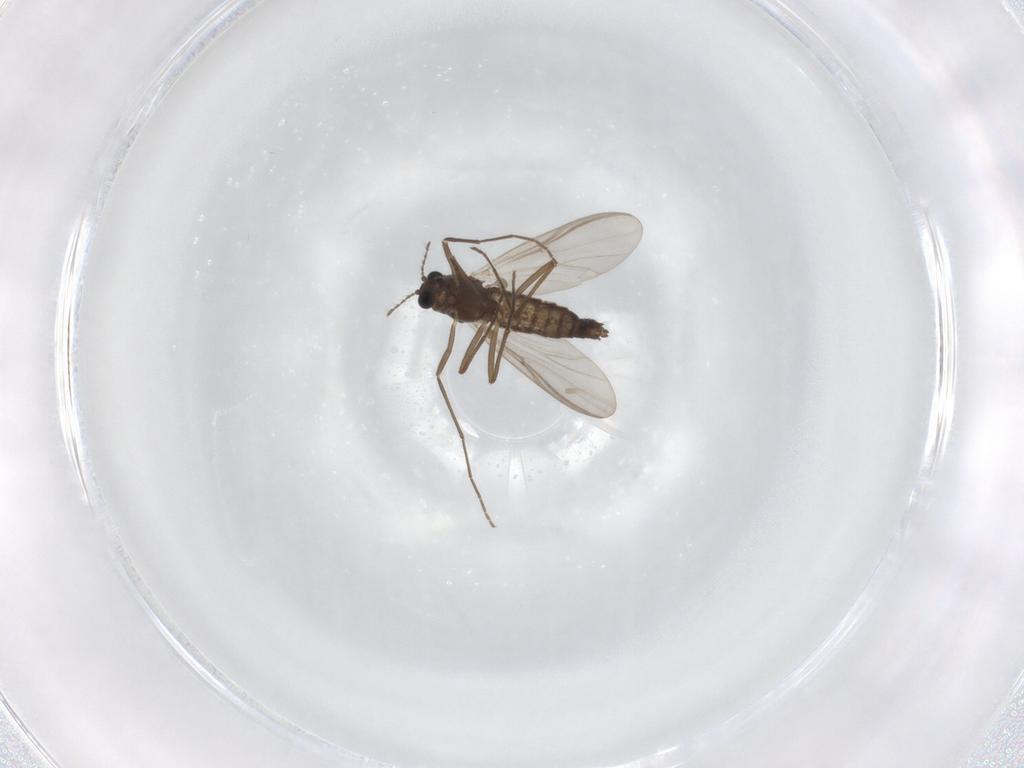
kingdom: Animalia
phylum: Arthropoda
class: Insecta
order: Diptera
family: Chironomidae
